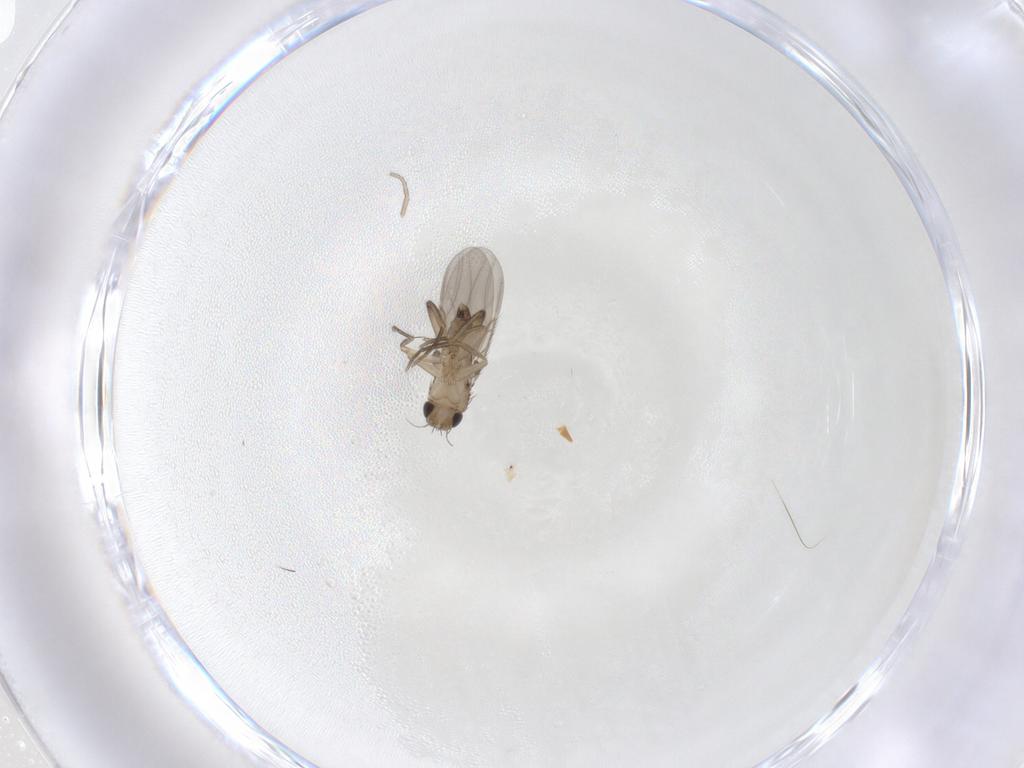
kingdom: Animalia
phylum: Arthropoda
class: Insecta
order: Diptera
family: Phoridae
